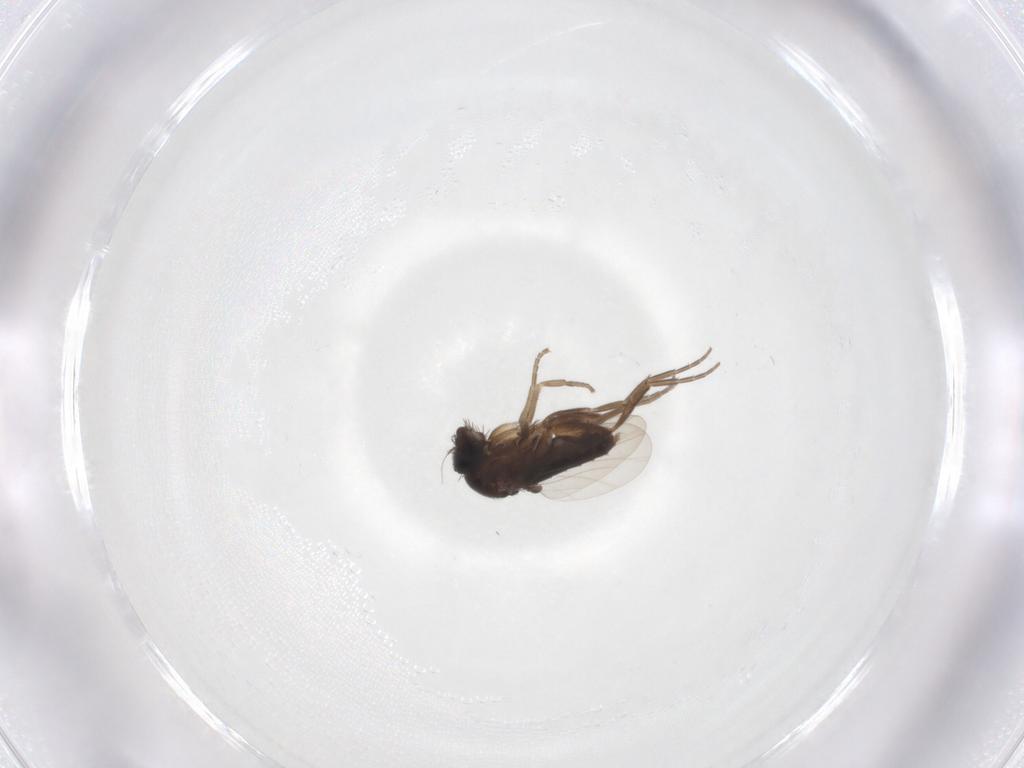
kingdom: Animalia
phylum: Arthropoda
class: Insecta
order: Diptera
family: Phoridae
